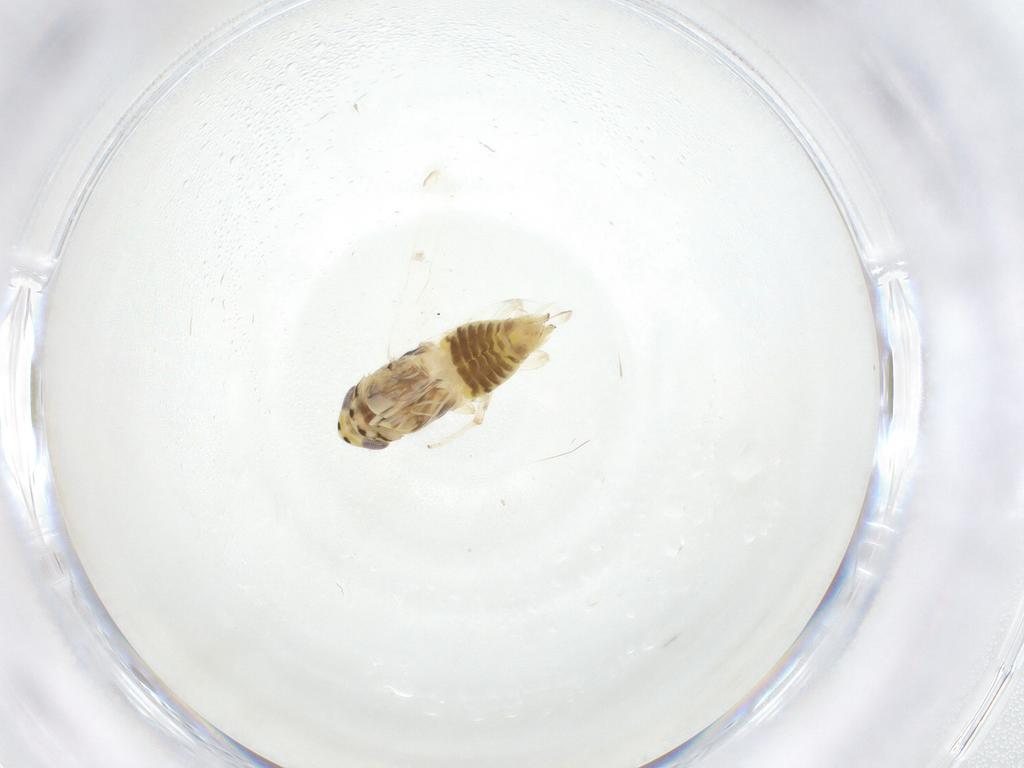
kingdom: Animalia
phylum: Arthropoda
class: Insecta
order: Hemiptera
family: Cicadellidae
